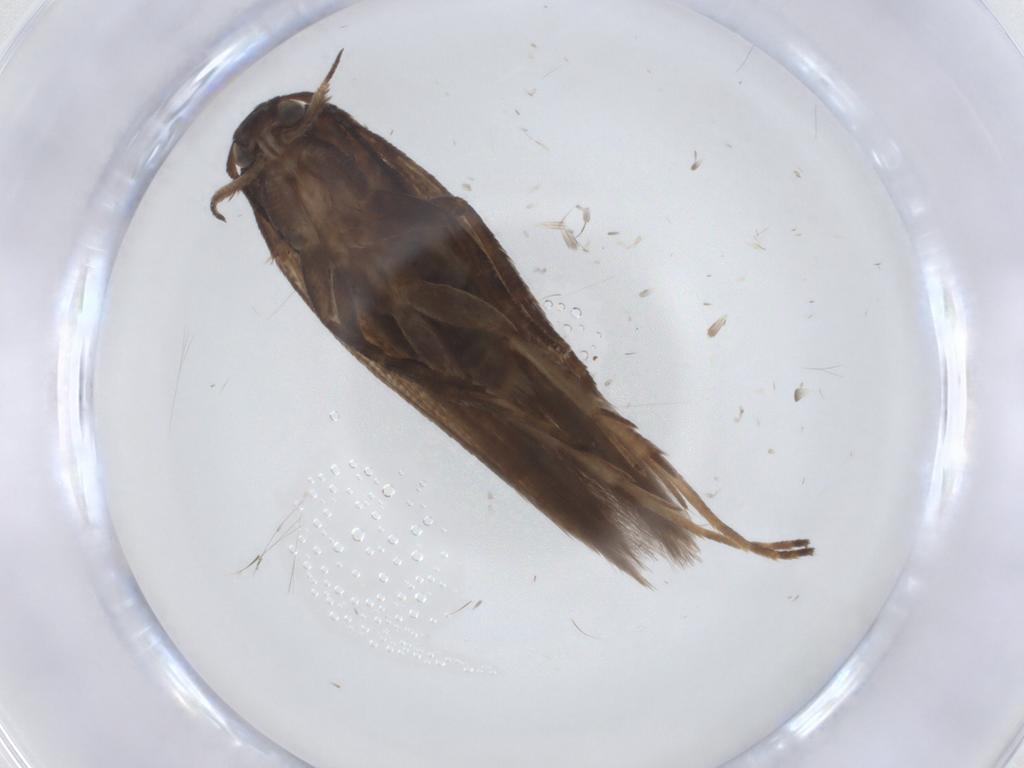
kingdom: Animalia
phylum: Arthropoda
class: Insecta
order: Lepidoptera
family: Gelechiidae
